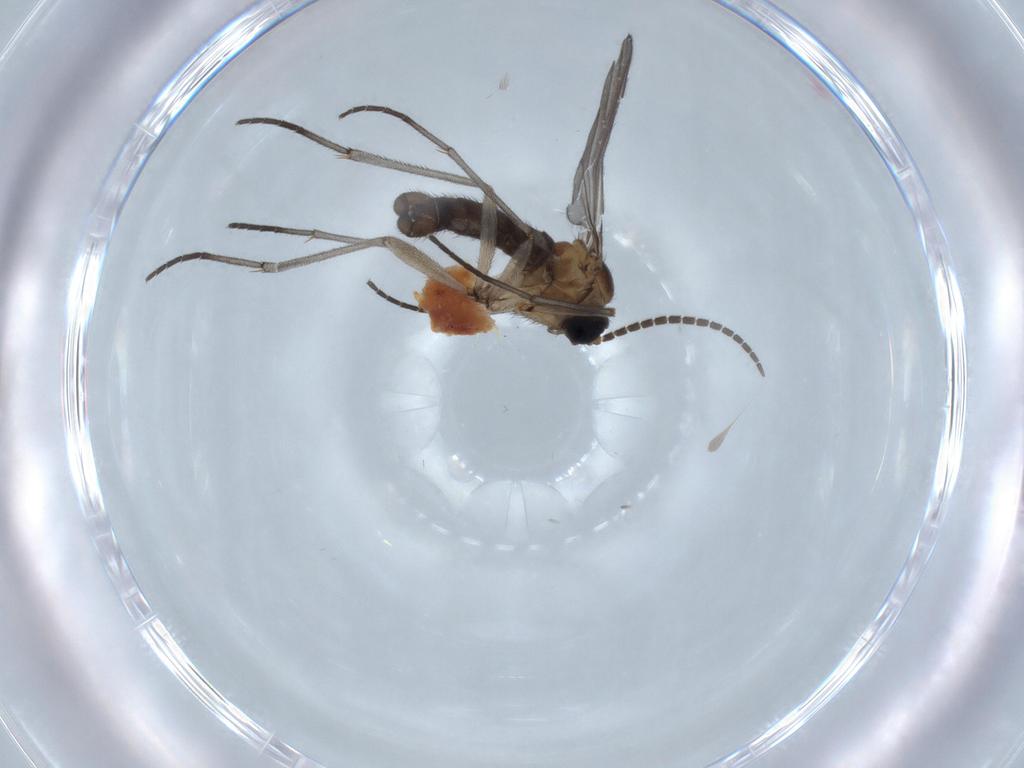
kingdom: Animalia
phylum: Arthropoda
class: Insecta
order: Diptera
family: Sciaridae
